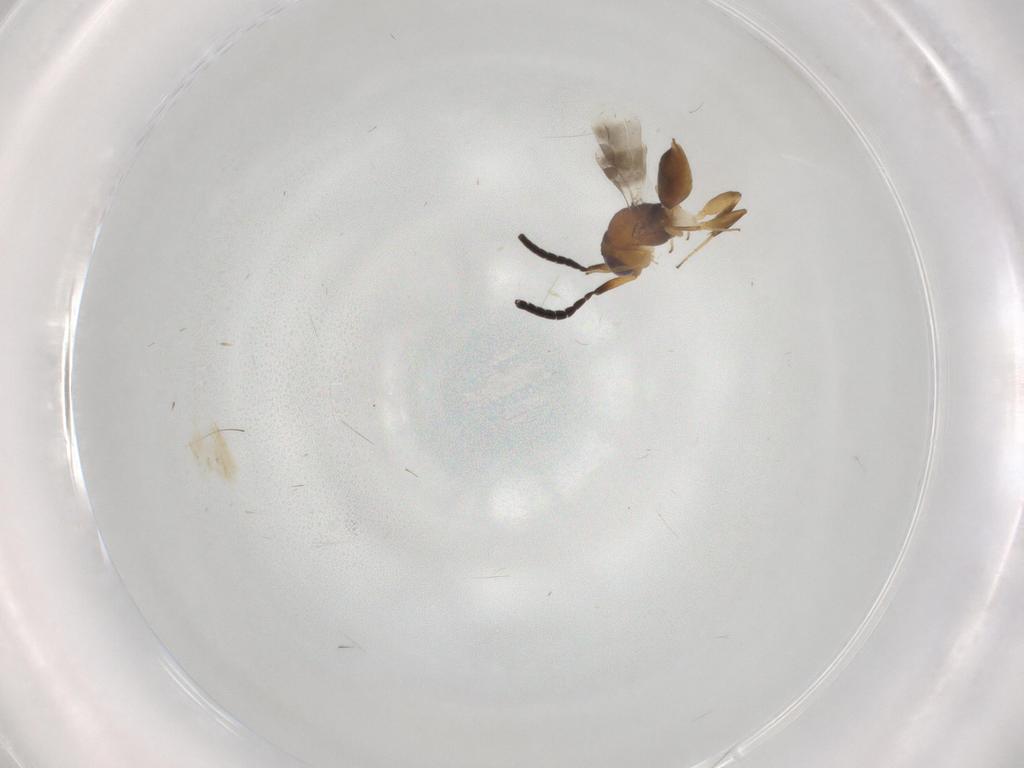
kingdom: Animalia
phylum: Arthropoda
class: Insecta
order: Hymenoptera
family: Megaspilidae
